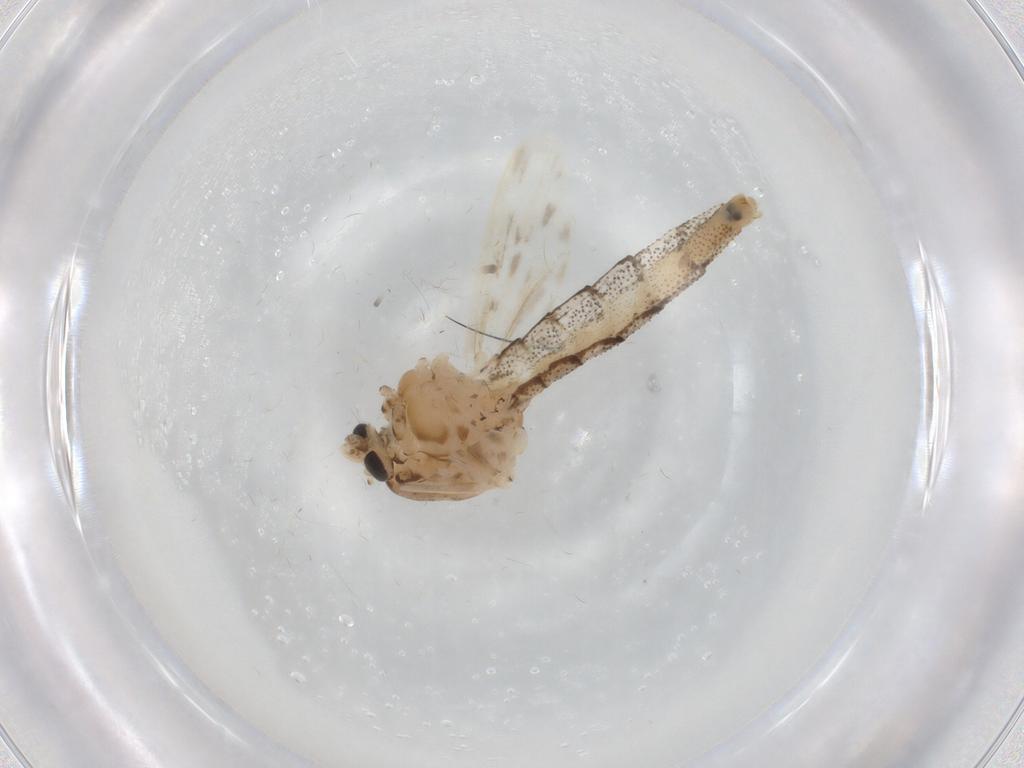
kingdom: Animalia
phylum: Arthropoda
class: Insecta
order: Diptera
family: Chaoboridae
